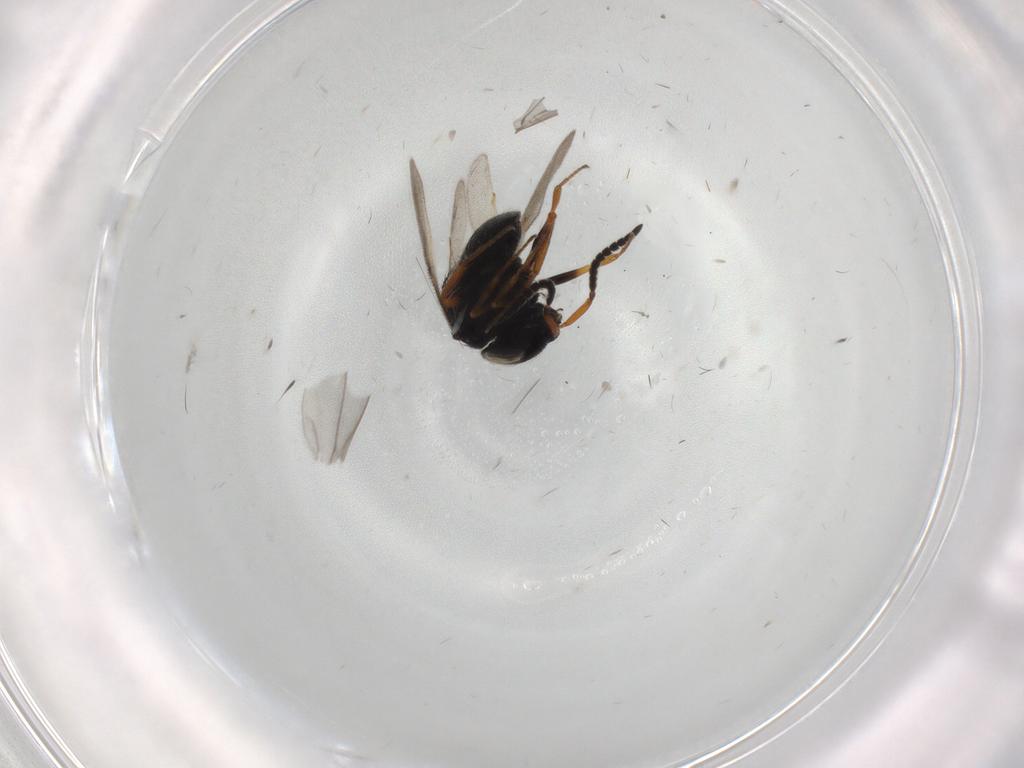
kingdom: Animalia
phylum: Arthropoda
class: Insecta
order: Hymenoptera
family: Scelionidae
